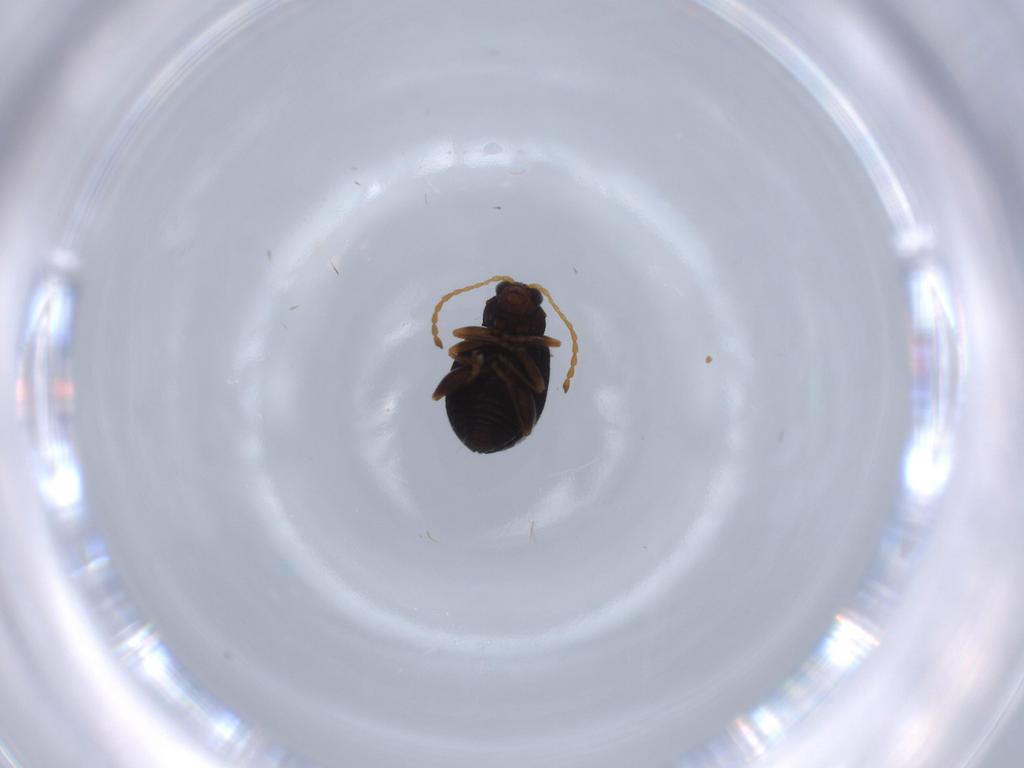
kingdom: Animalia
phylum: Arthropoda
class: Insecta
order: Coleoptera
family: Chrysomelidae
